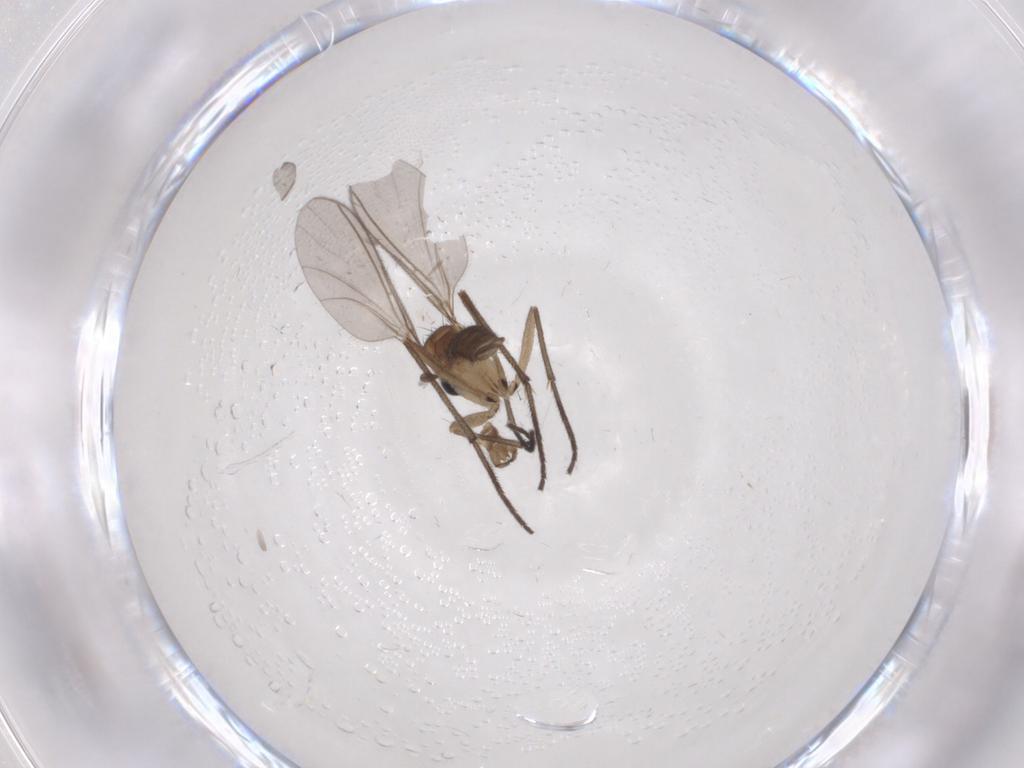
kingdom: Animalia
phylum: Arthropoda
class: Insecta
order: Diptera
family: Sciaridae
